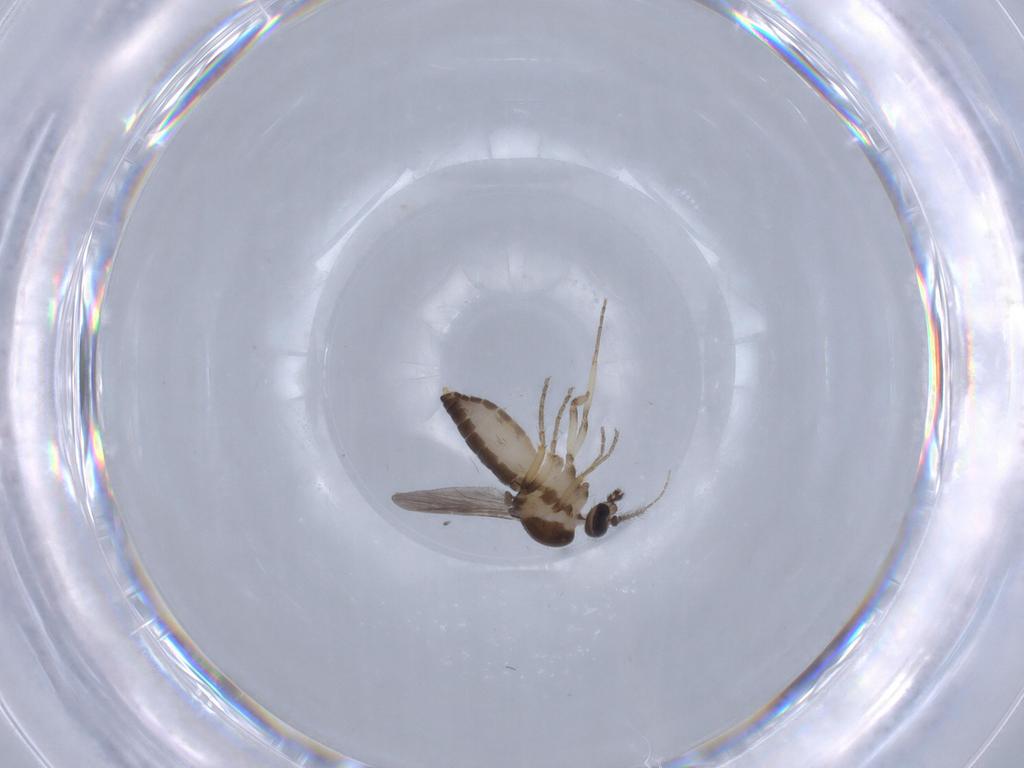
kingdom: Animalia
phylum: Arthropoda
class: Insecta
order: Diptera
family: Ceratopogonidae
